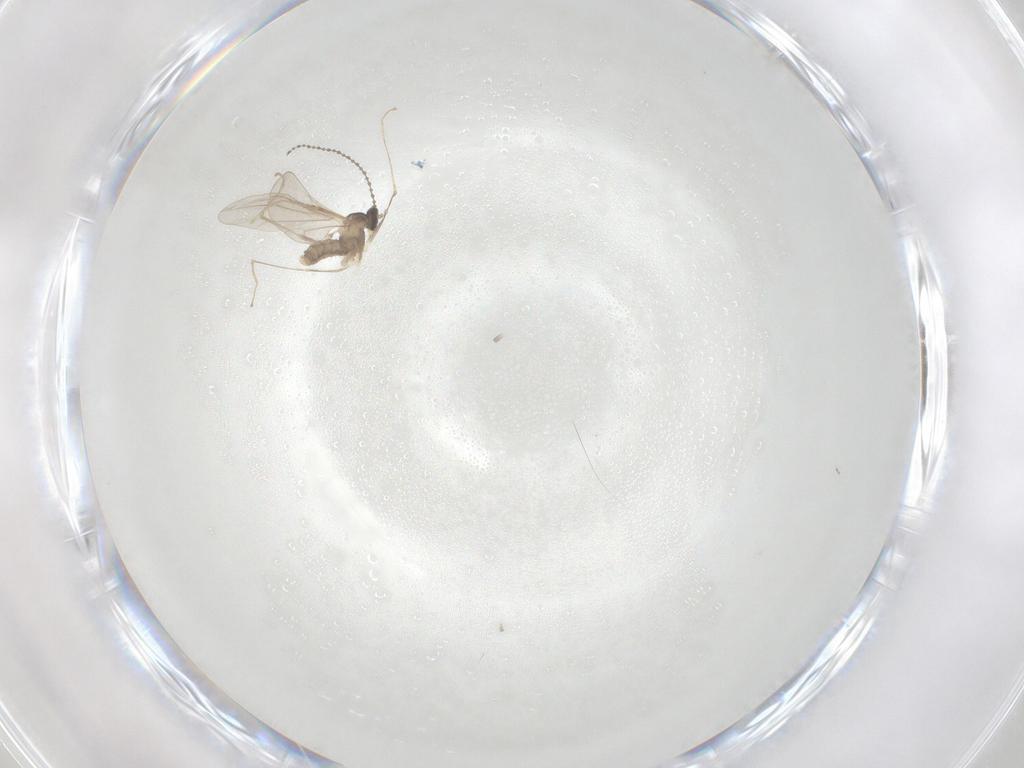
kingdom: Animalia
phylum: Arthropoda
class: Insecta
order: Diptera
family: Cecidomyiidae
